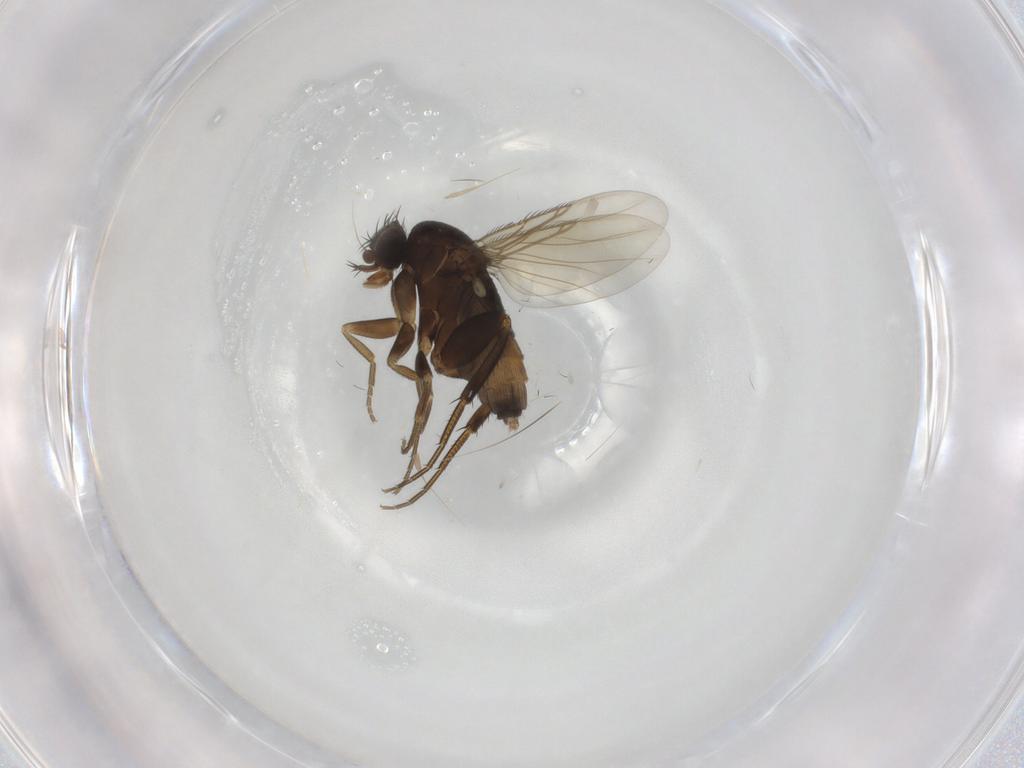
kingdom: Animalia
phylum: Arthropoda
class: Insecta
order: Diptera
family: Phoridae
